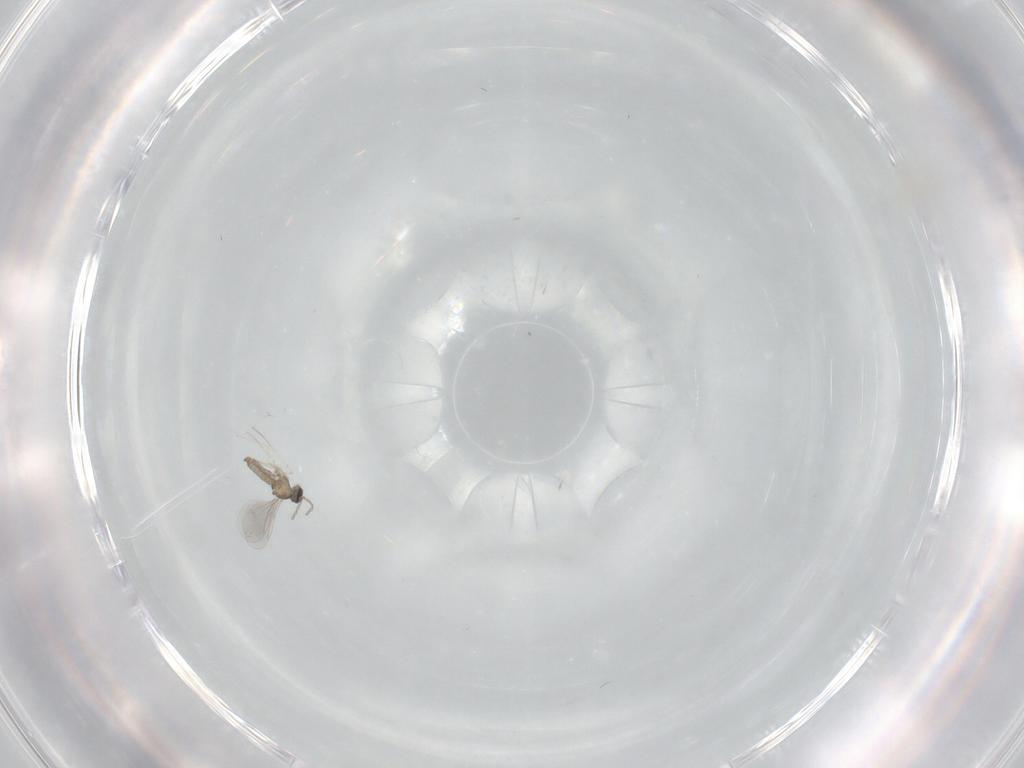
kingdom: Animalia
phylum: Arthropoda
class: Insecta
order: Diptera
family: Cecidomyiidae
